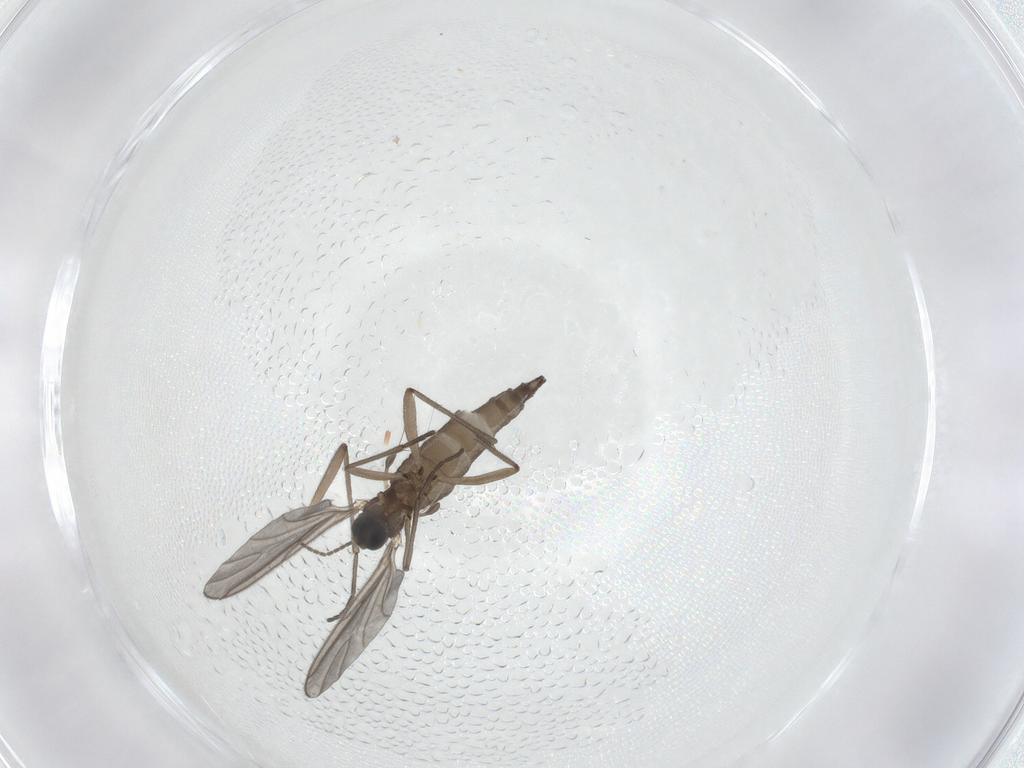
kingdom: Animalia
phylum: Arthropoda
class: Insecta
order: Diptera
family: Sciaridae
